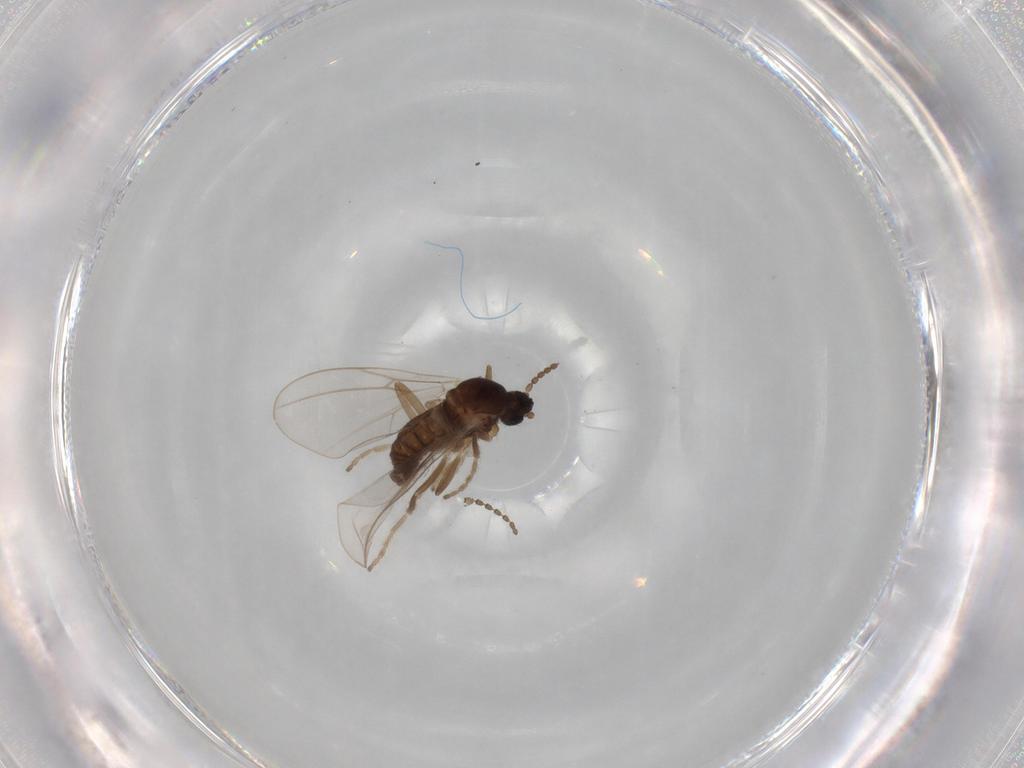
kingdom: Animalia
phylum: Arthropoda
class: Insecta
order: Diptera
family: Cecidomyiidae
